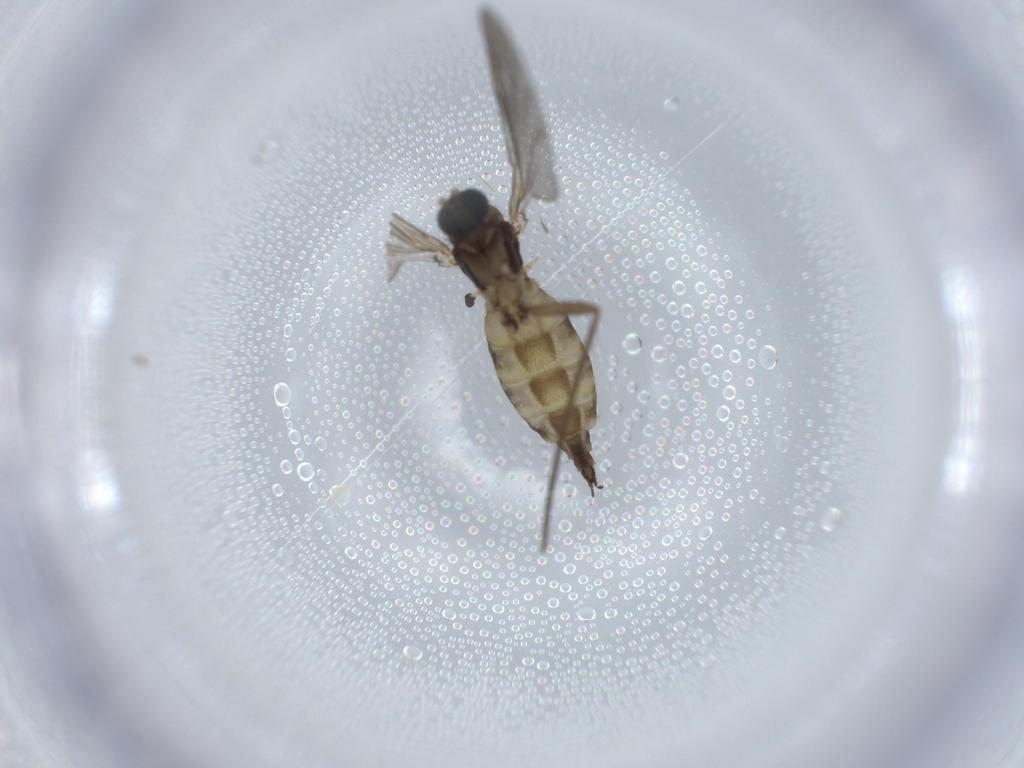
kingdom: Animalia
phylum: Arthropoda
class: Insecta
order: Diptera
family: Sciaridae
